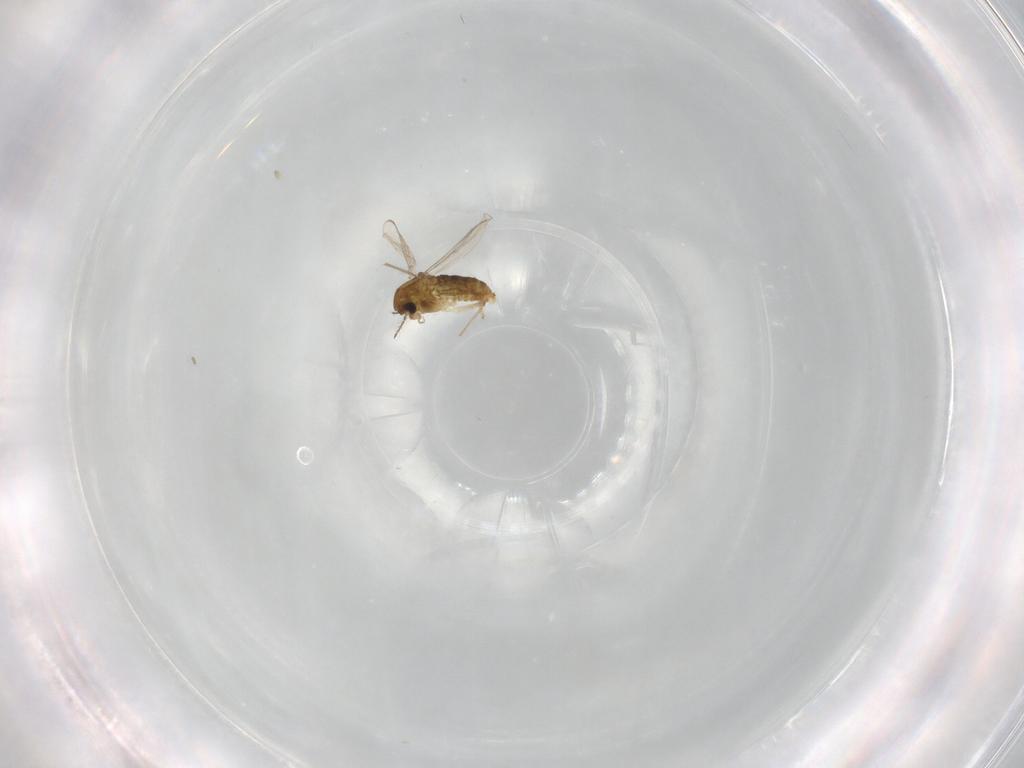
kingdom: Animalia
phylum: Arthropoda
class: Insecta
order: Diptera
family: Chironomidae
